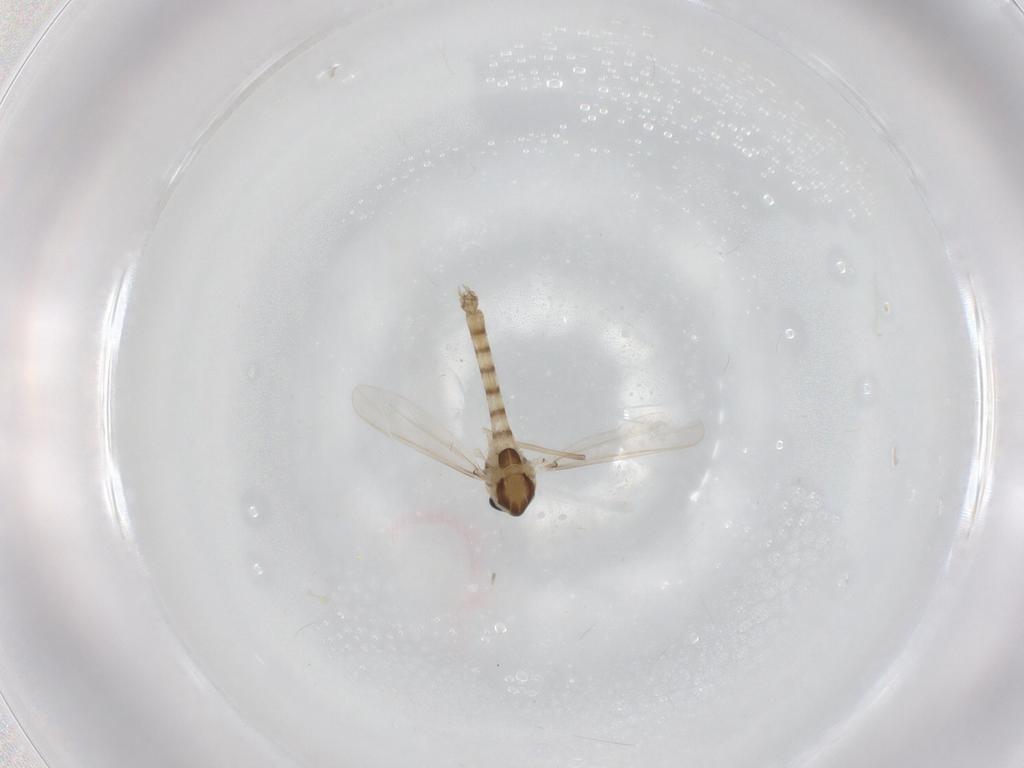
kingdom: Animalia
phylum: Arthropoda
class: Insecta
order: Diptera
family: Chironomidae
